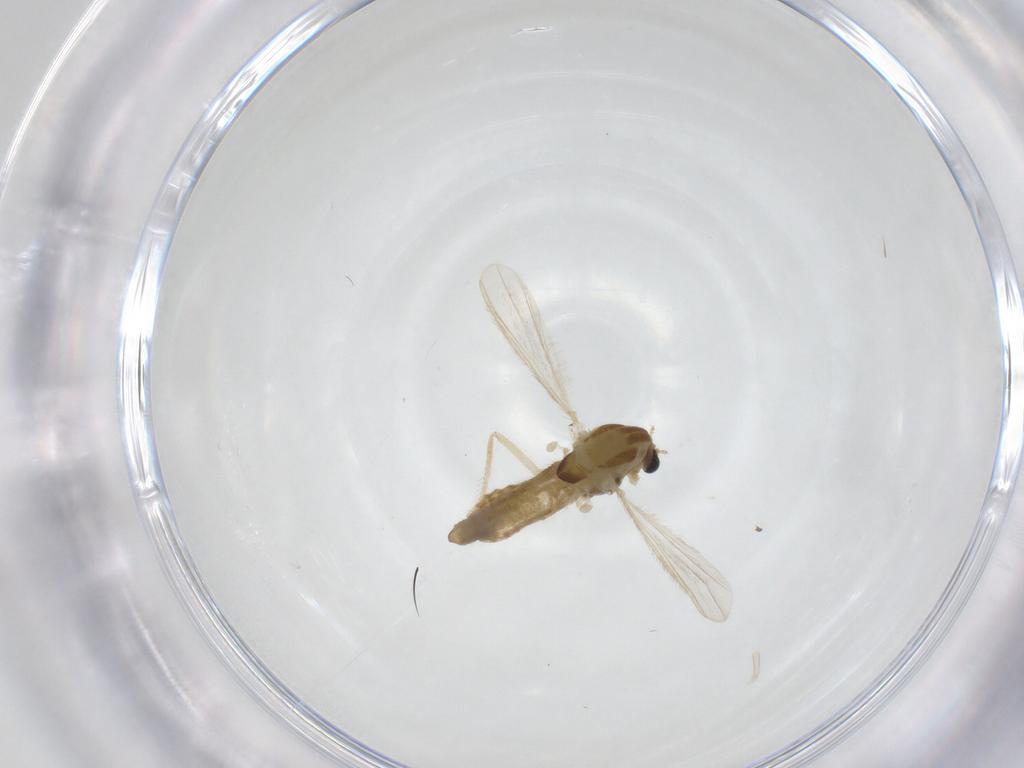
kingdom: Animalia
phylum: Arthropoda
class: Insecta
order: Diptera
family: Chironomidae
